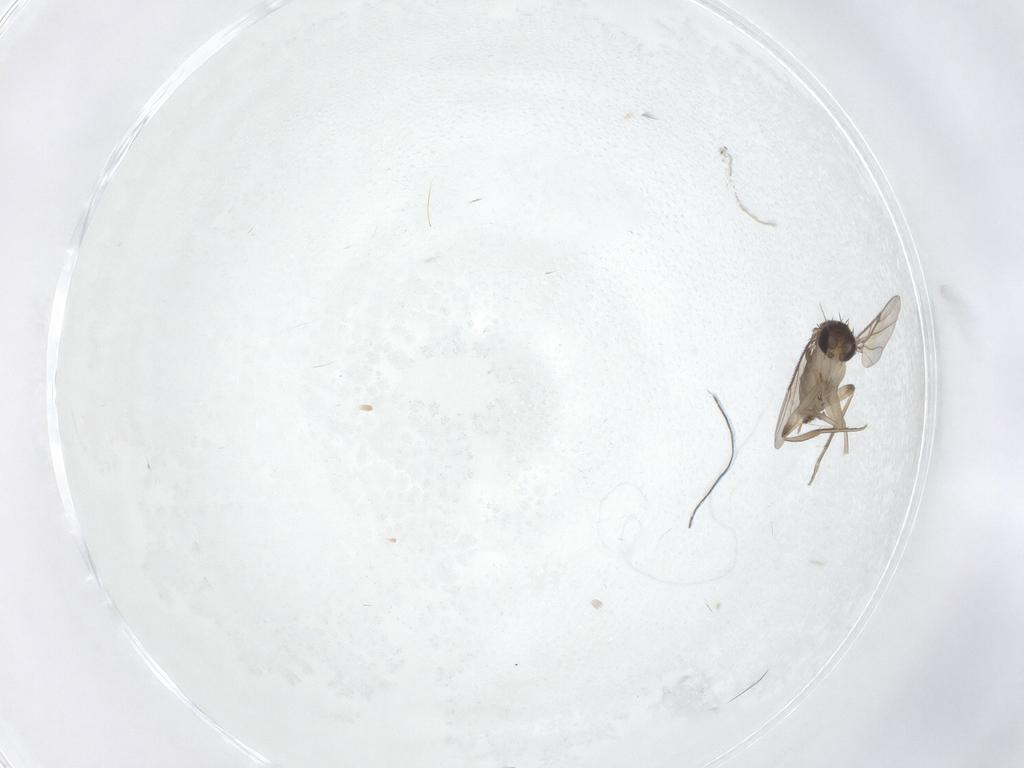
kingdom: Animalia
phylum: Arthropoda
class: Insecta
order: Diptera
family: Phoridae
